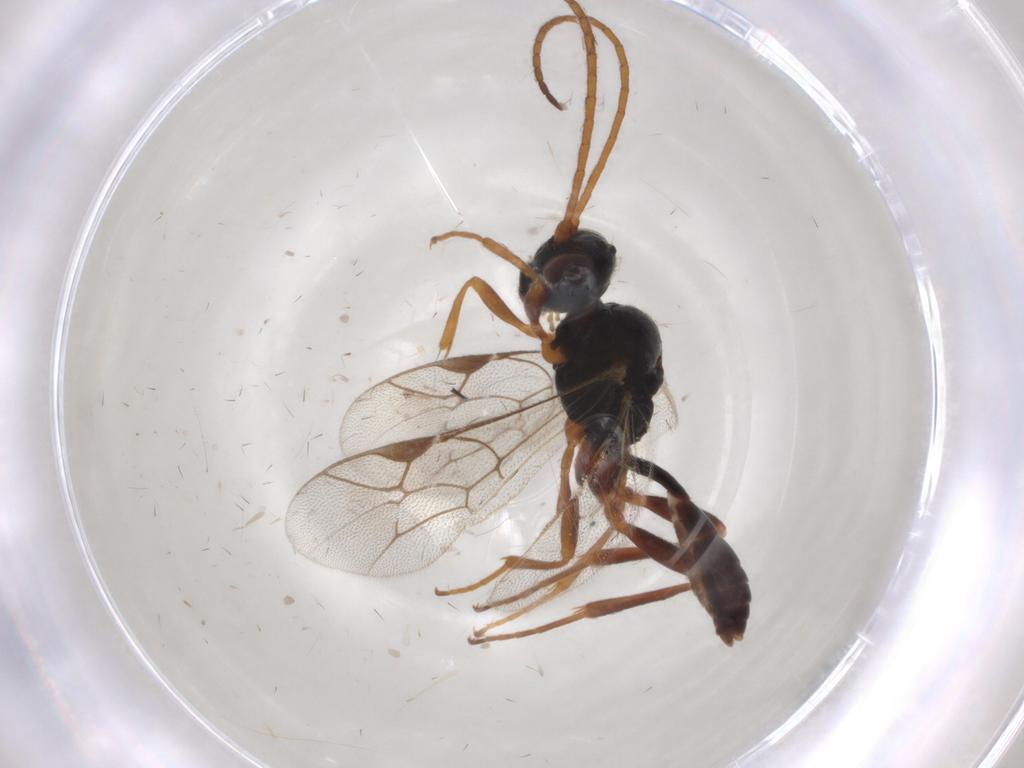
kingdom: Animalia
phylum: Arthropoda
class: Insecta
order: Hymenoptera
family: Ichneumonidae
